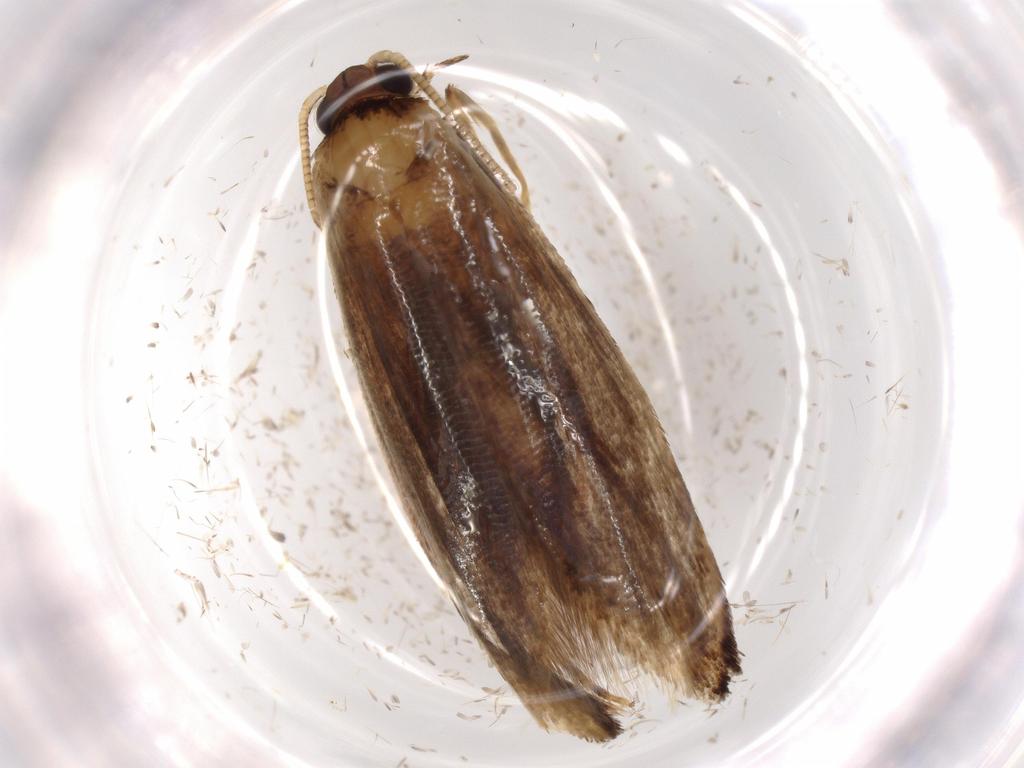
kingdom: Animalia
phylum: Arthropoda
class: Insecta
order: Lepidoptera
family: Tineidae
